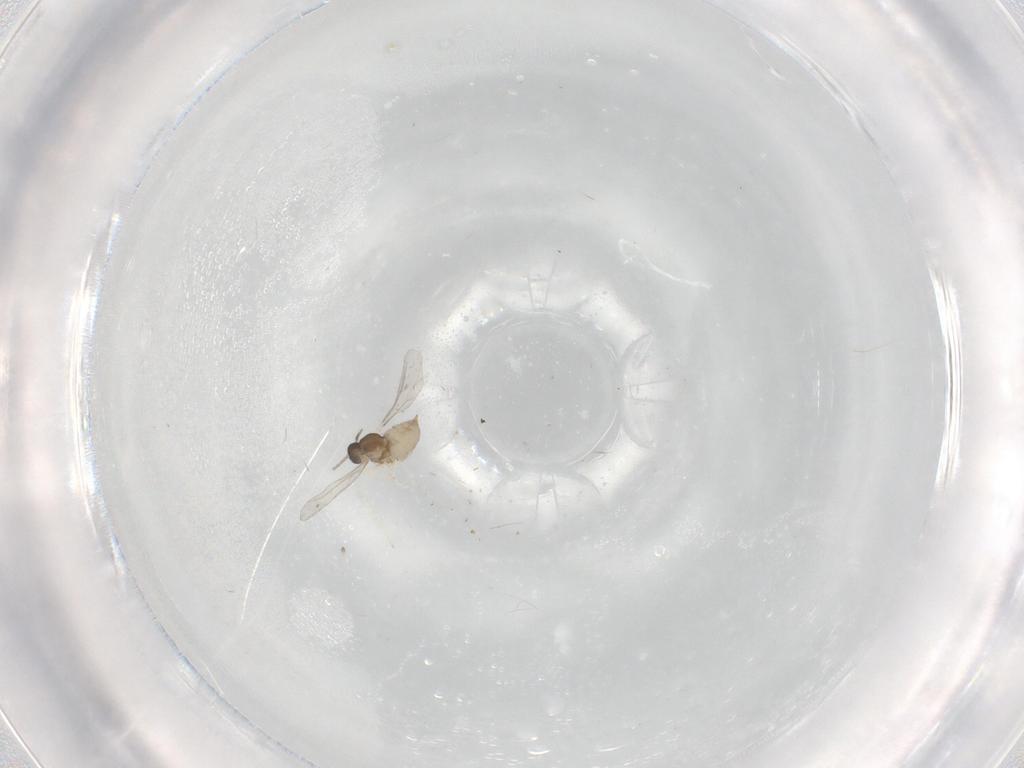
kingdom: Animalia
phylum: Arthropoda
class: Insecta
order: Diptera
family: Cecidomyiidae
